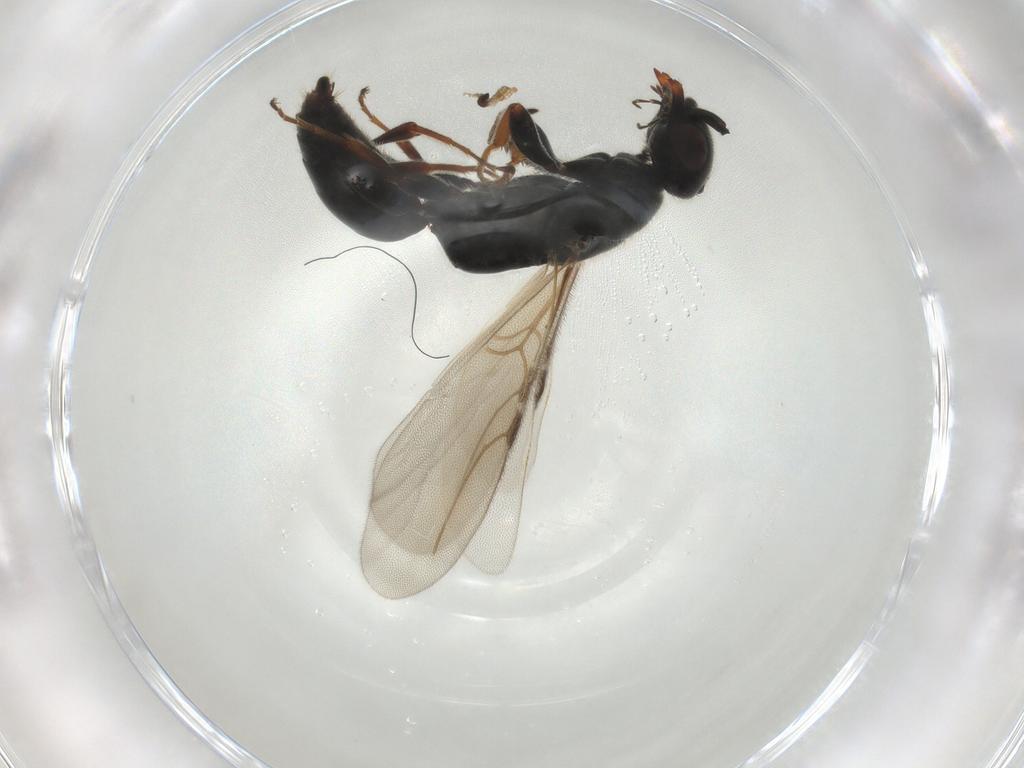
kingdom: Animalia
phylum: Arthropoda
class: Insecta
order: Hymenoptera
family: Bethylidae
